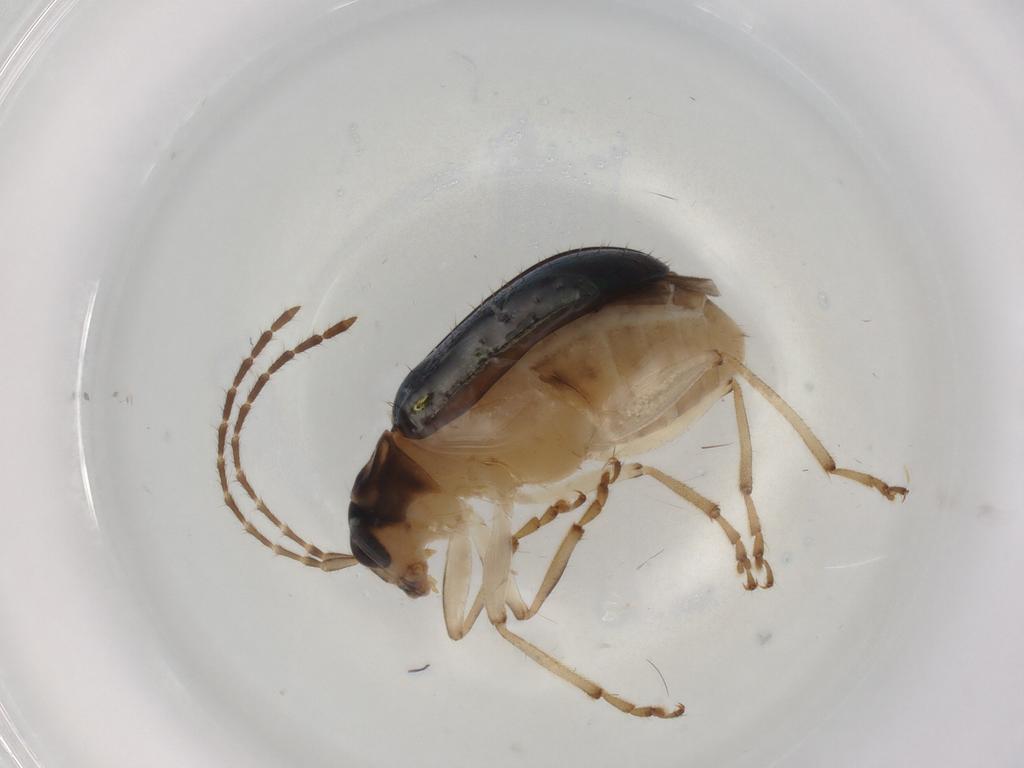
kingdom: Animalia
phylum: Arthropoda
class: Insecta
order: Coleoptera
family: Chrysomelidae
